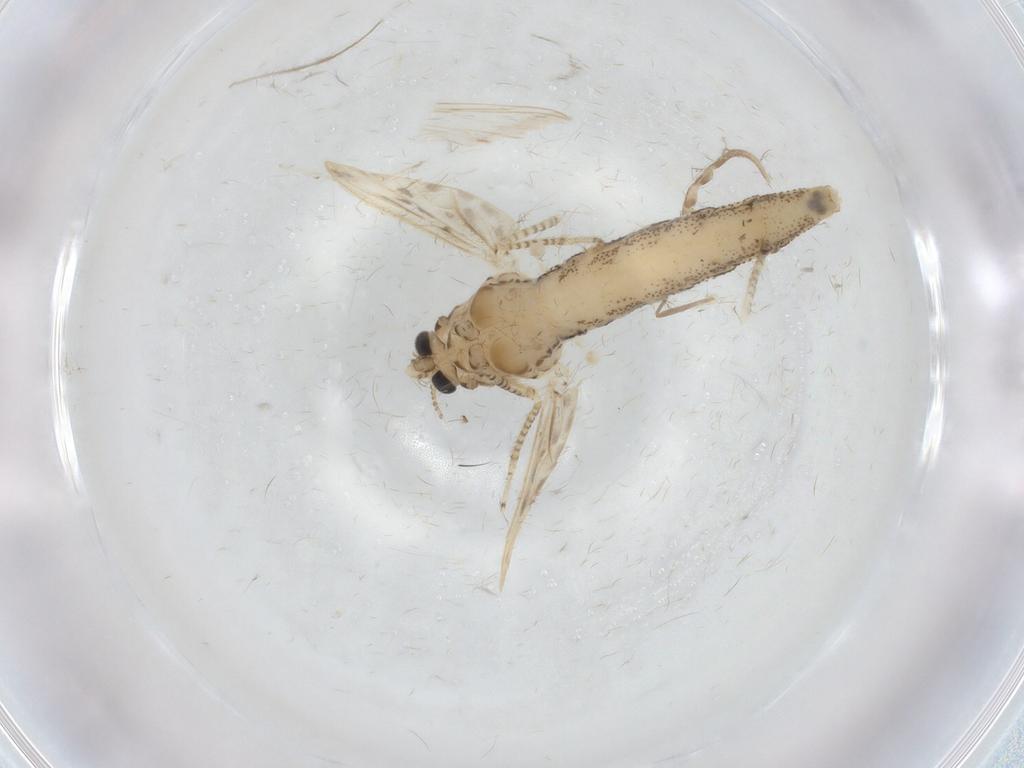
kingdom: Animalia
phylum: Arthropoda
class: Insecta
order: Diptera
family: Chaoboridae
